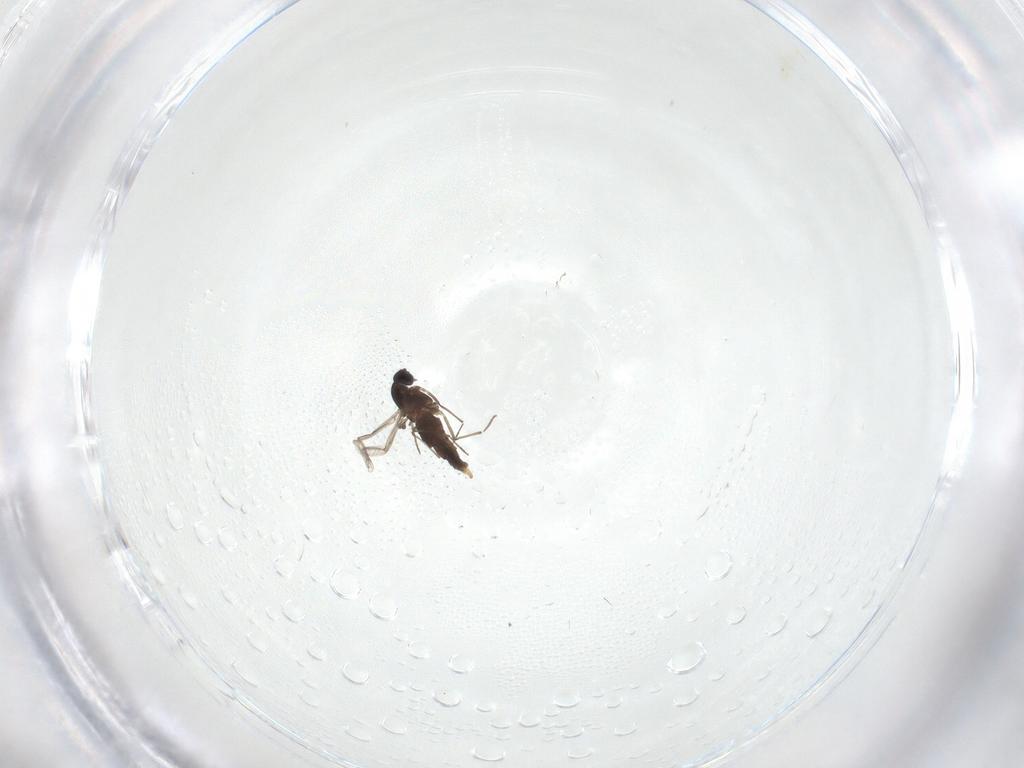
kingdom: Animalia
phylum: Arthropoda
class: Insecta
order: Diptera
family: Chironomidae
